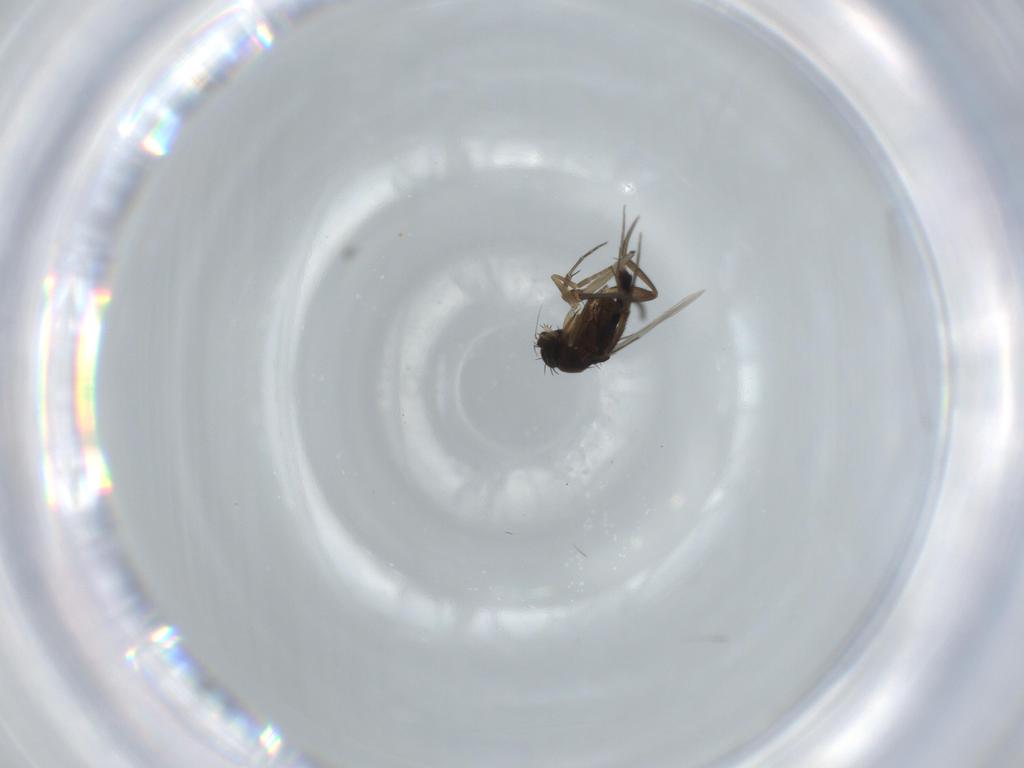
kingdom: Animalia
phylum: Arthropoda
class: Insecta
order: Diptera
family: Phoridae
